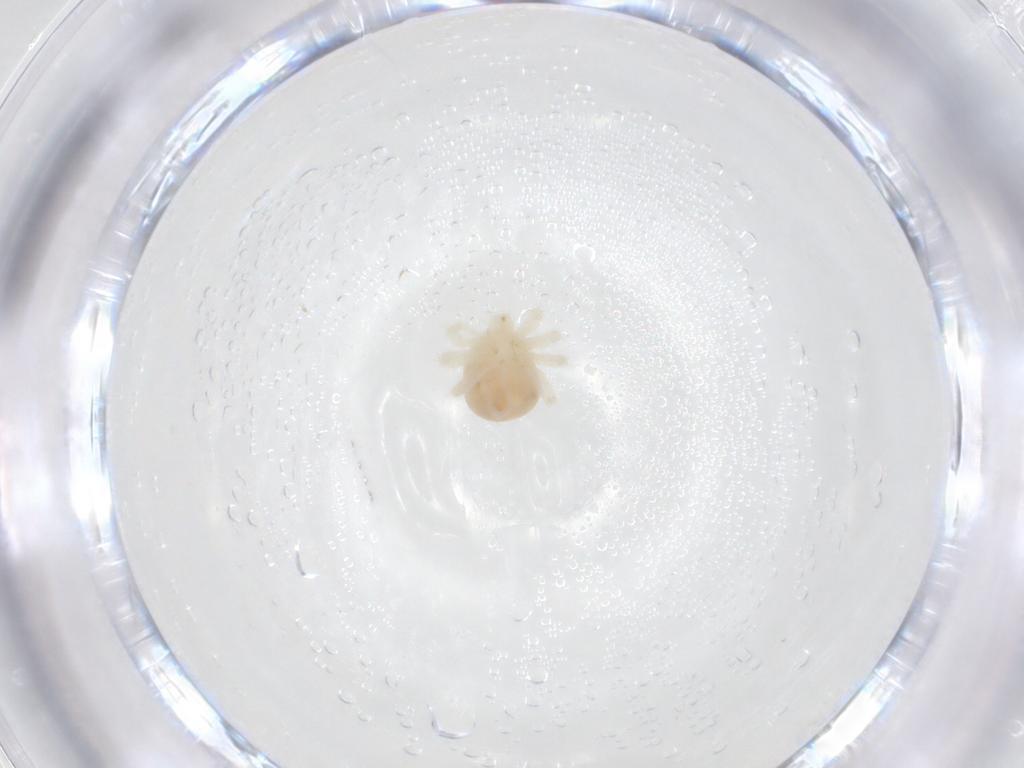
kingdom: Animalia
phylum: Arthropoda
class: Arachnida
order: Trombidiformes
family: Anystidae
